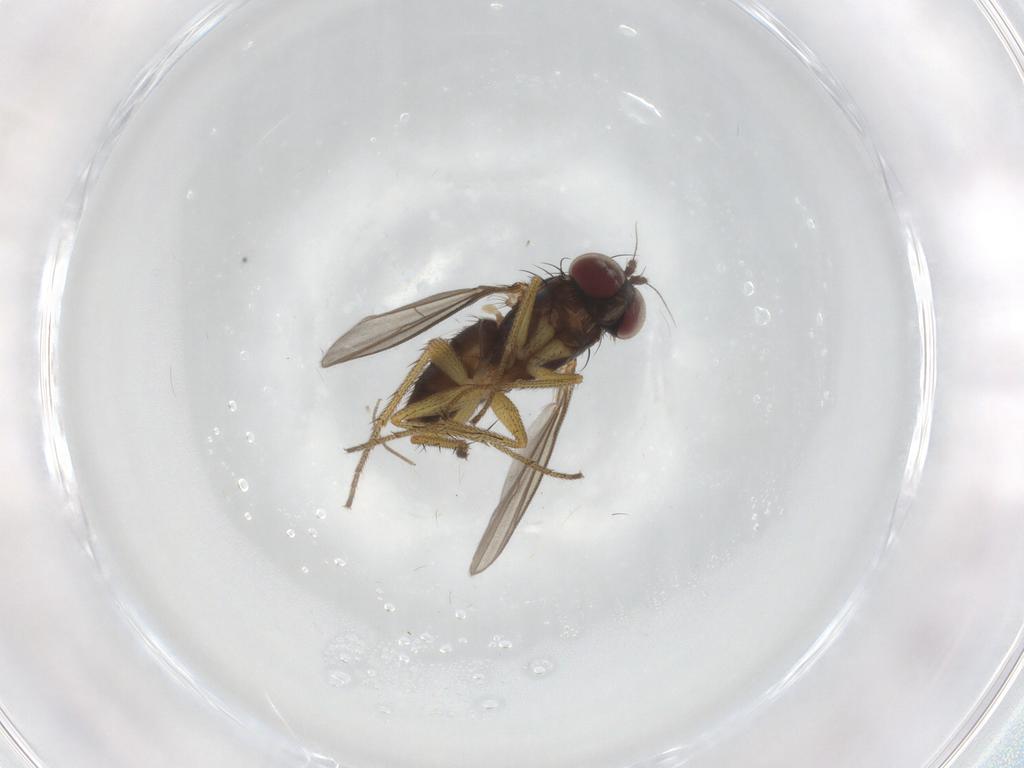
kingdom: Animalia
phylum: Arthropoda
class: Insecta
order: Diptera
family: Dolichopodidae
